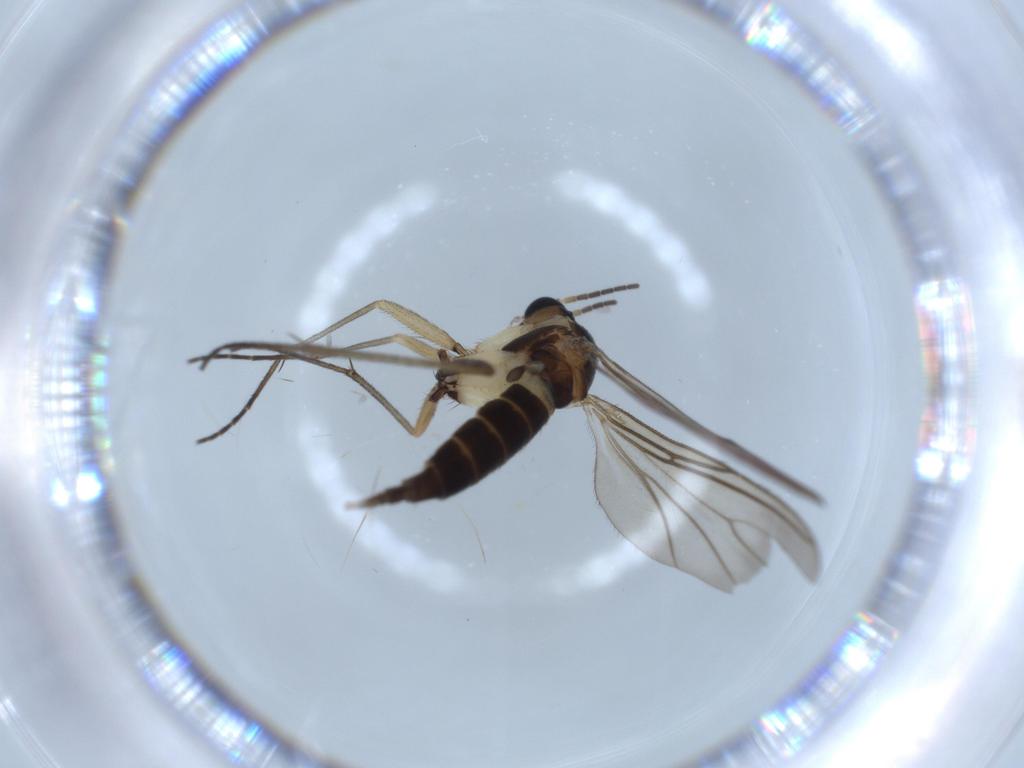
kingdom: Animalia
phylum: Arthropoda
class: Insecta
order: Diptera
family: Sciaridae
